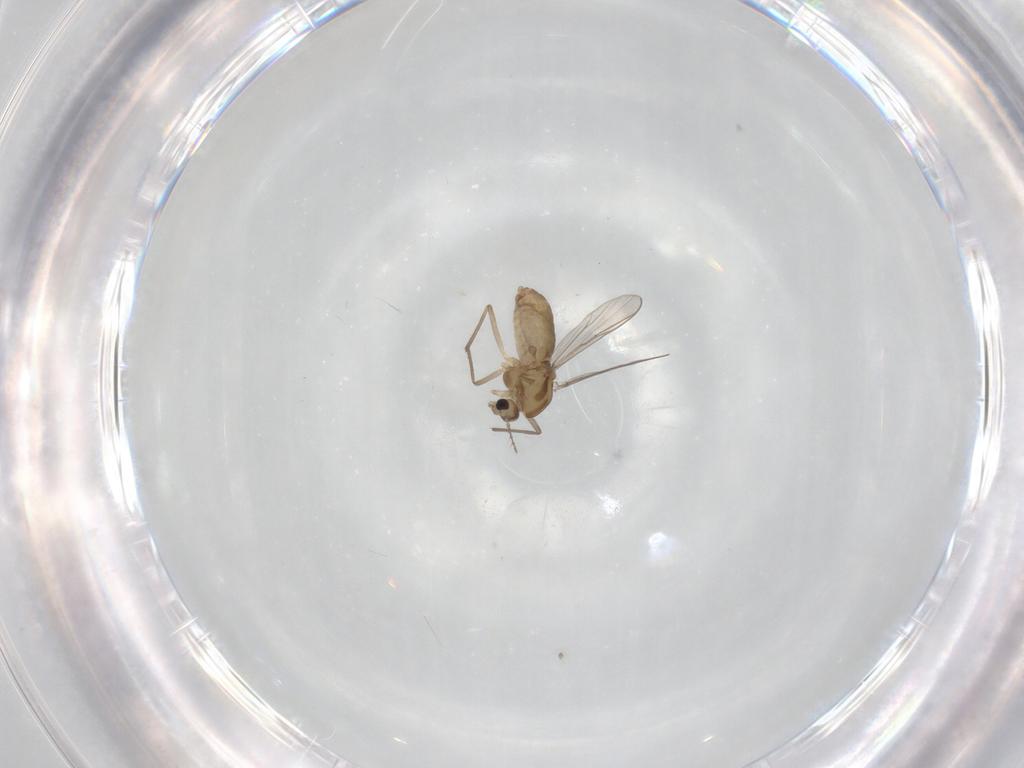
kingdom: Animalia
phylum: Arthropoda
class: Insecta
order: Diptera
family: Chironomidae
